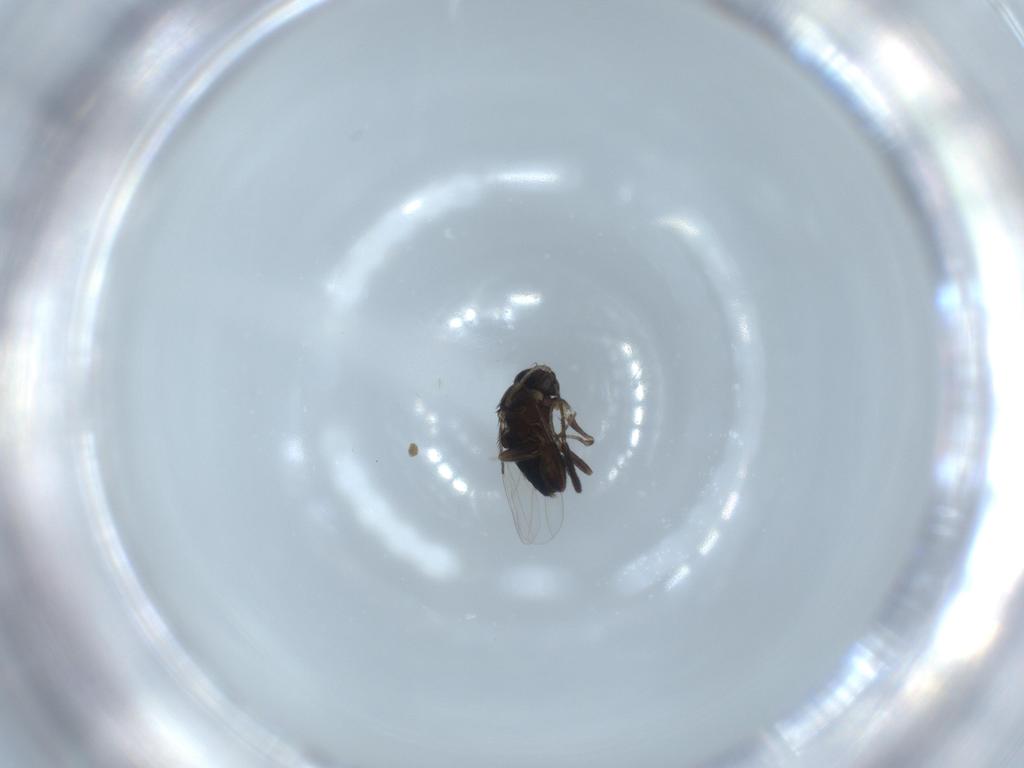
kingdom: Animalia
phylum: Arthropoda
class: Insecta
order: Diptera
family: Phoridae
